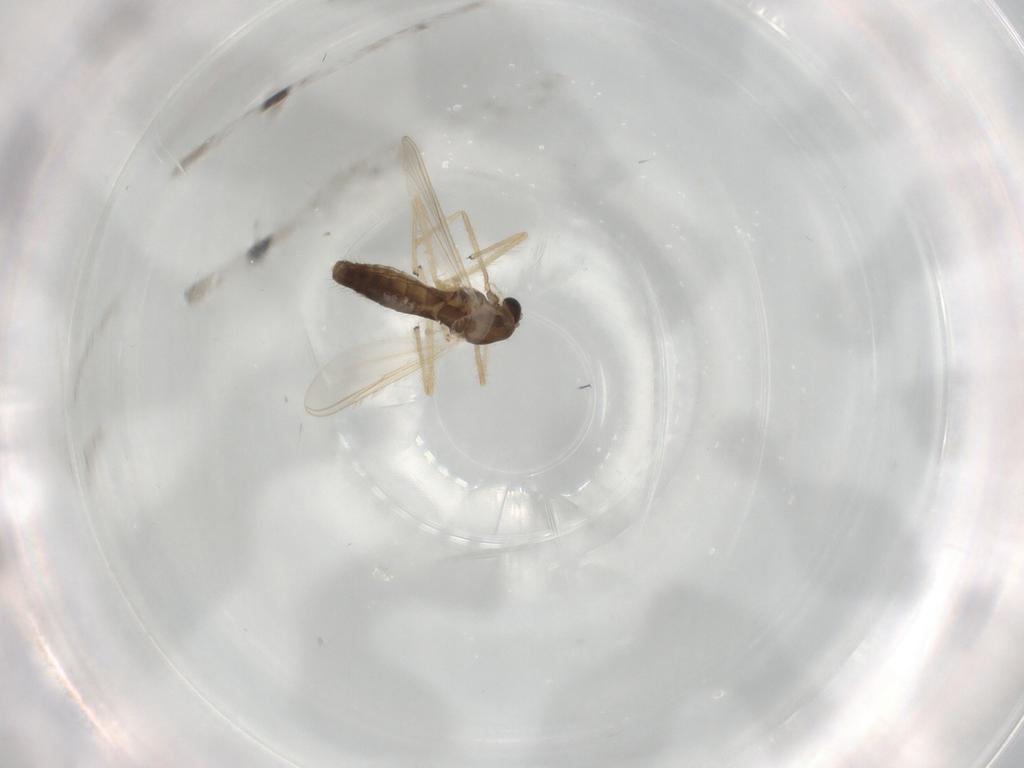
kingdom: Animalia
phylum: Arthropoda
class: Insecta
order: Diptera
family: Chironomidae
